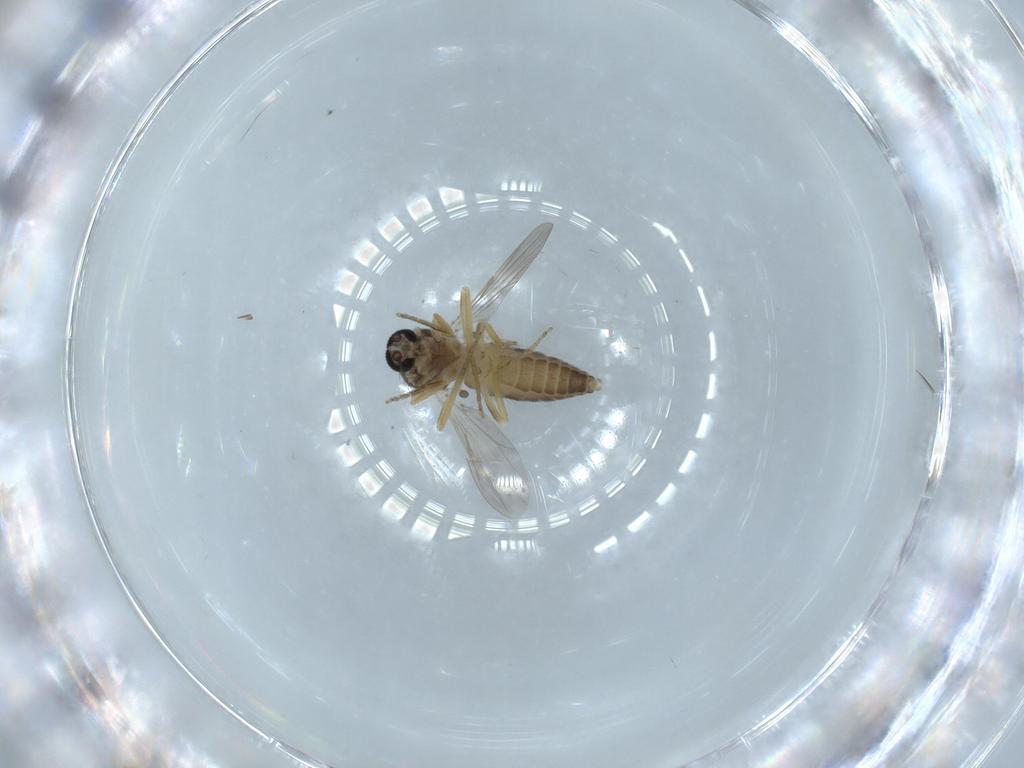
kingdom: Animalia
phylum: Arthropoda
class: Insecta
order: Diptera
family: Ceratopogonidae
